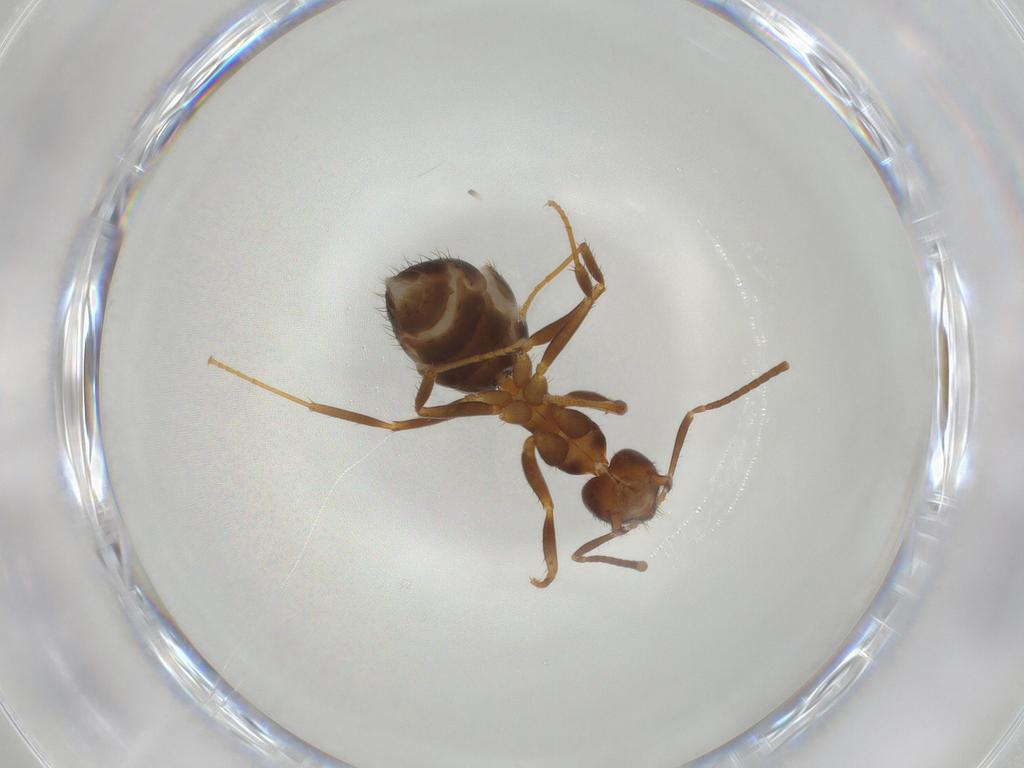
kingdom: Animalia
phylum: Arthropoda
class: Insecta
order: Hymenoptera
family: Formicidae
